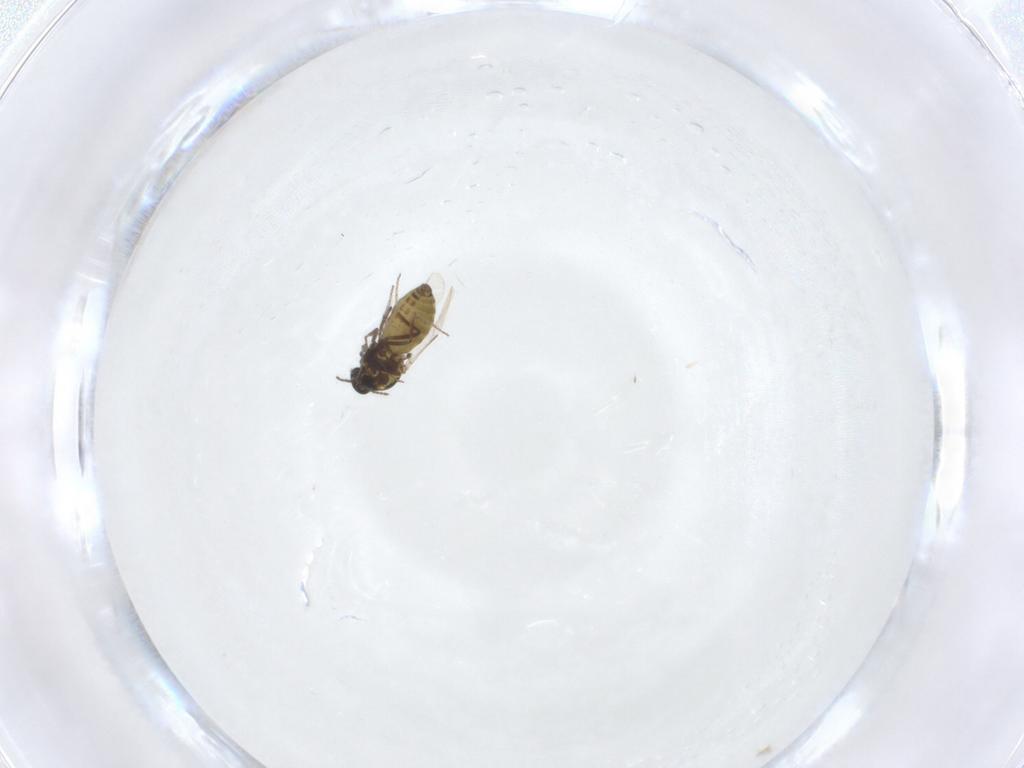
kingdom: Animalia
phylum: Arthropoda
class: Insecta
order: Diptera
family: Ceratopogonidae
